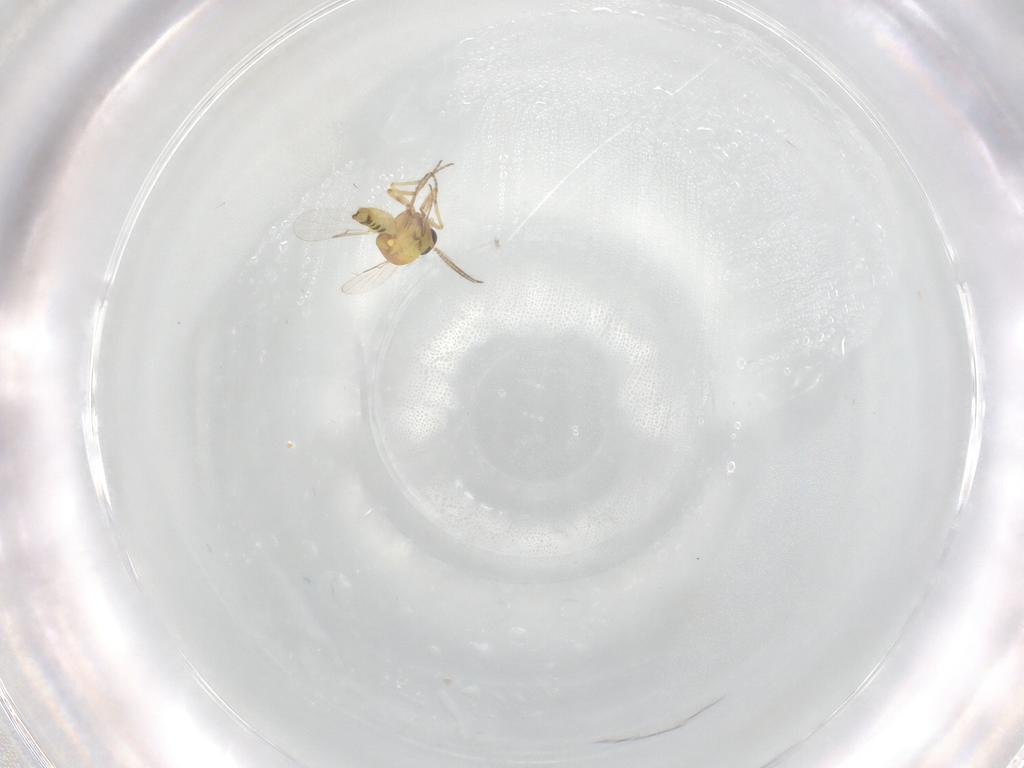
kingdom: Animalia
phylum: Arthropoda
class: Insecta
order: Diptera
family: Ceratopogonidae
